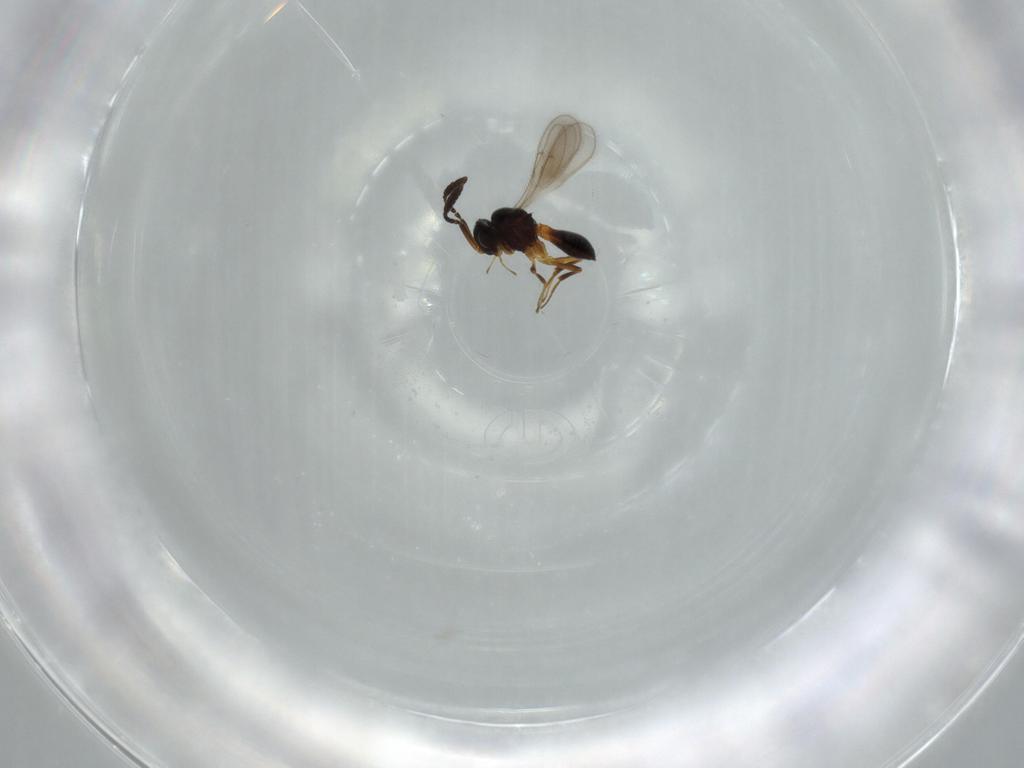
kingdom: Animalia
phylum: Arthropoda
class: Insecta
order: Hymenoptera
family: Scelionidae
